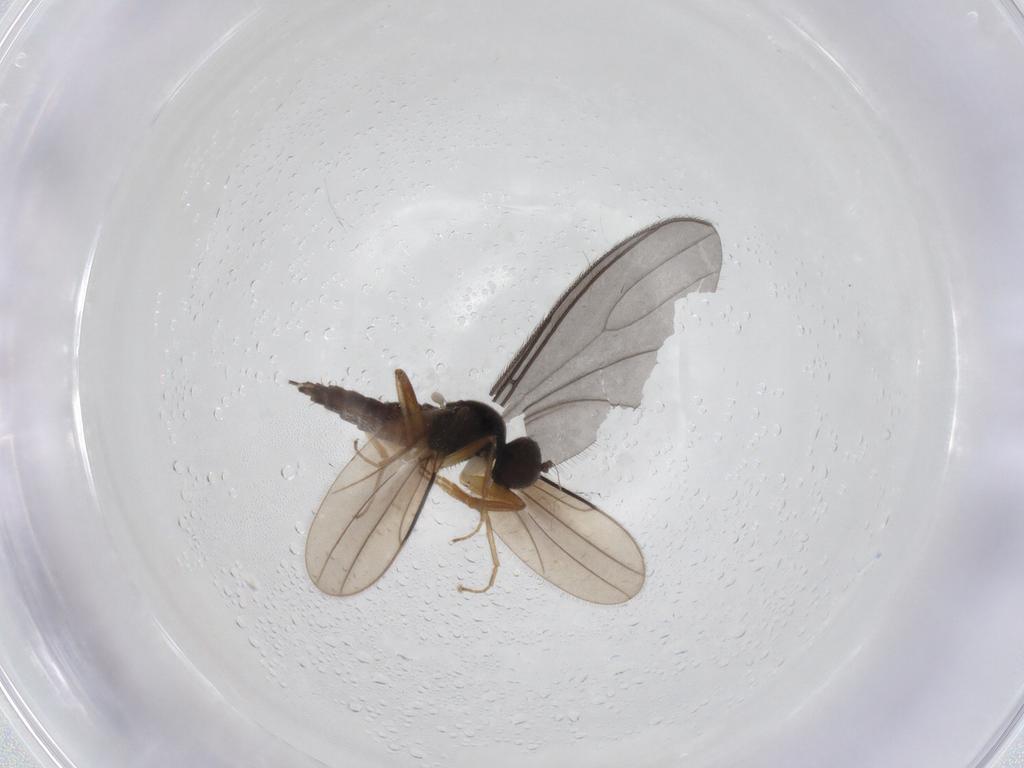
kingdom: Animalia
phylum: Arthropoda
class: Insecta
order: Diptera
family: Sciaridae
